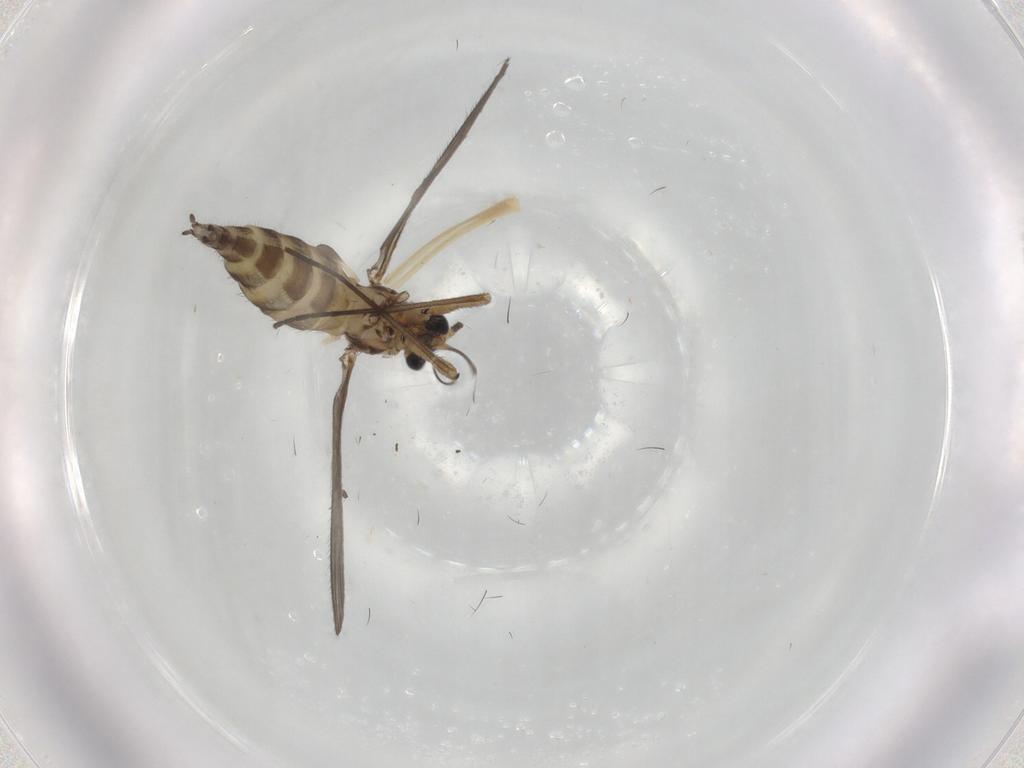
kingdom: Animalia
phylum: Arthropoda
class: Insecta
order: Diptera
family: Sciaridae
